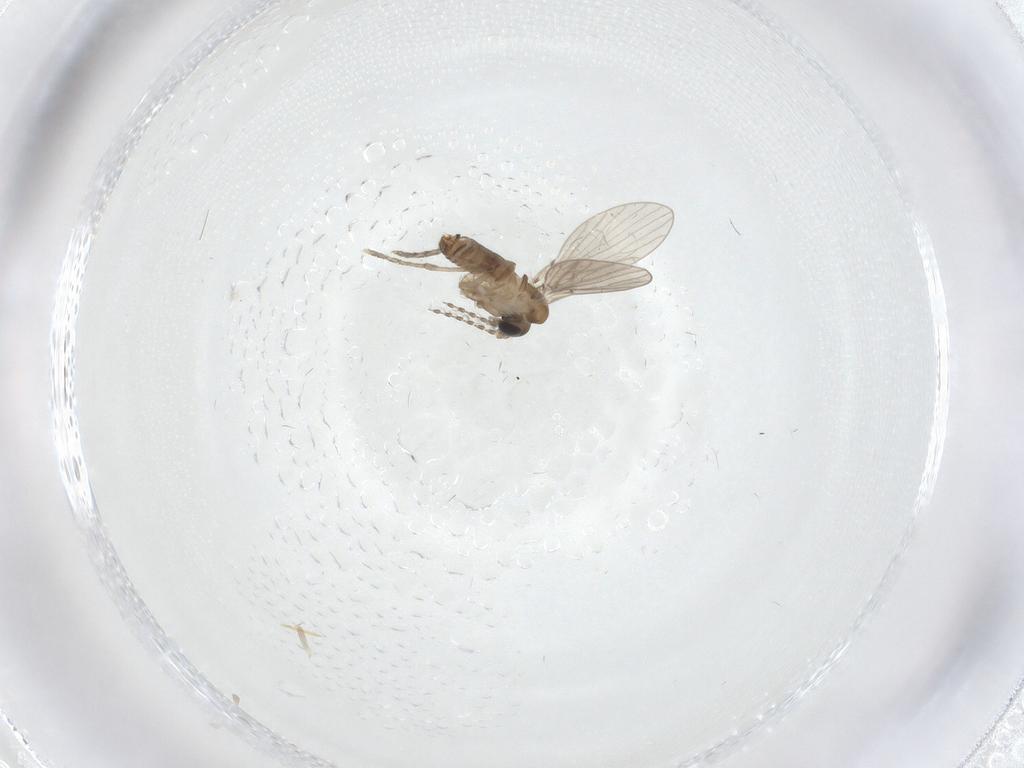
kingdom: Animalia
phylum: Arthropoda
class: Insecta
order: Diptera
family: Psychodidae
